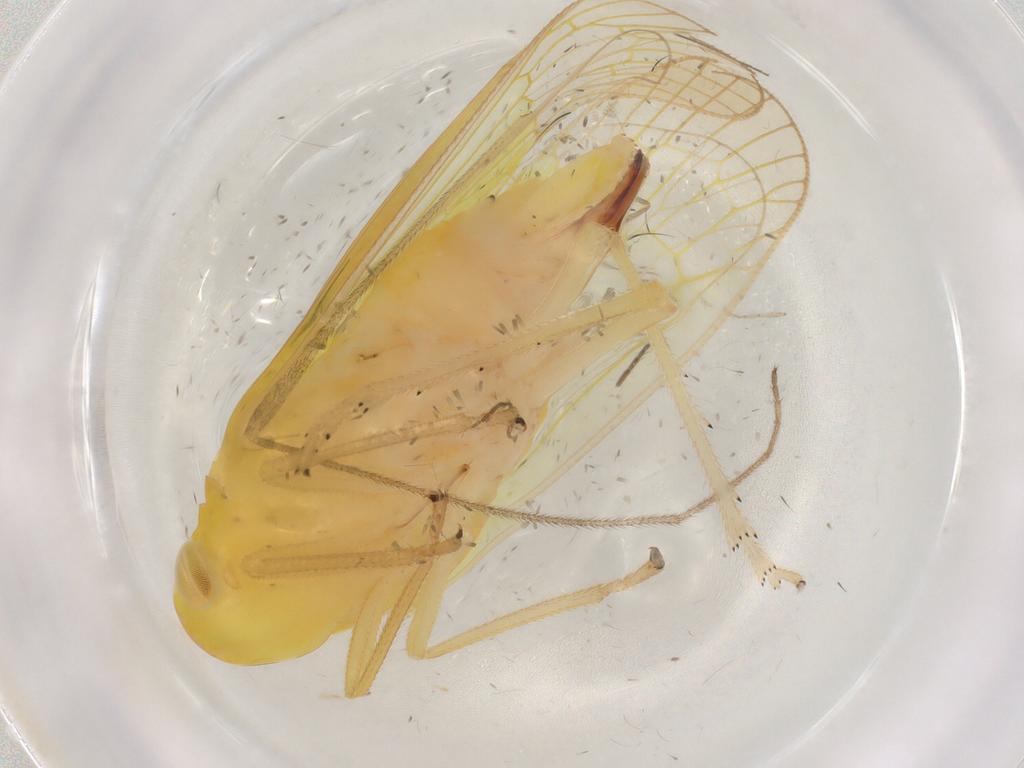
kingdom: Animalia
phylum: Arthropoda
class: Insecta
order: Hemiptera
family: Tropiduchidae
